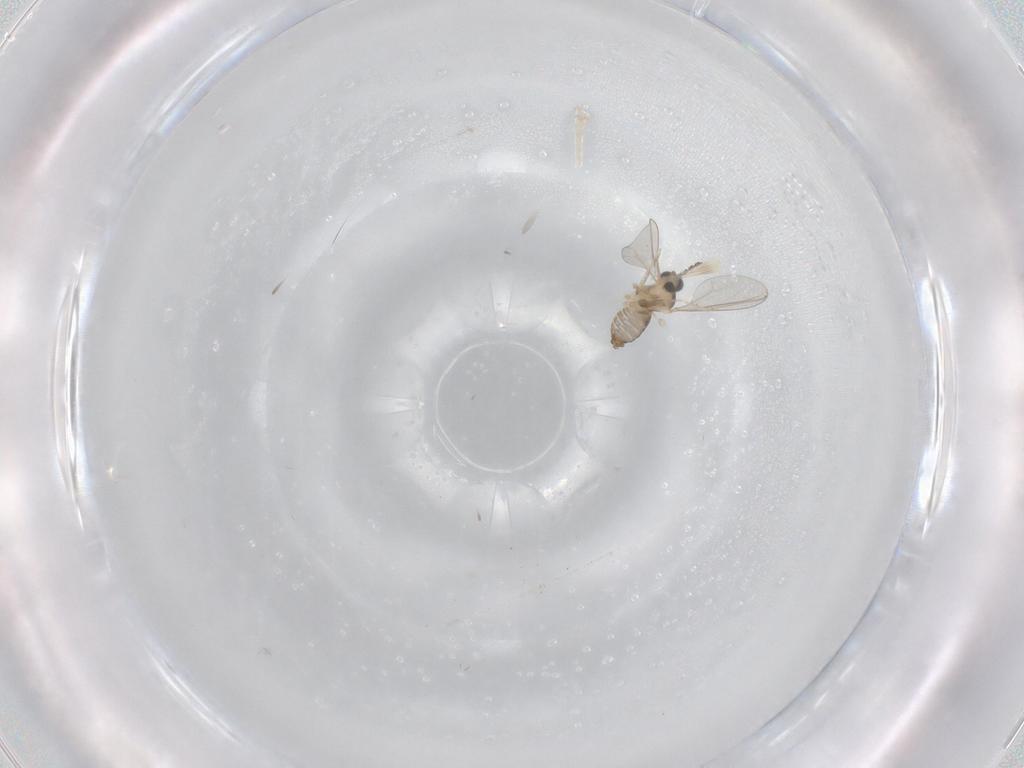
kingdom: Animalia
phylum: Arthropoda
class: Insecta
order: Diptera
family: Cecidomyiidae
